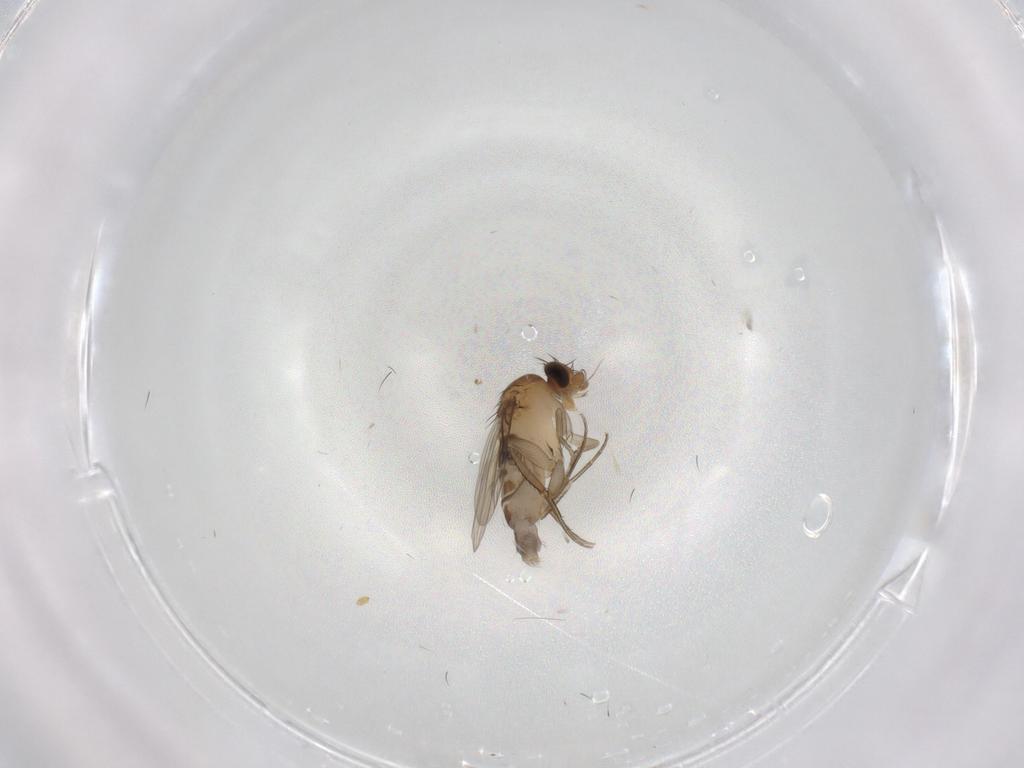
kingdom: Animalia
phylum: Arthropoda
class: Insecta
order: Diptera
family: Phoridae
